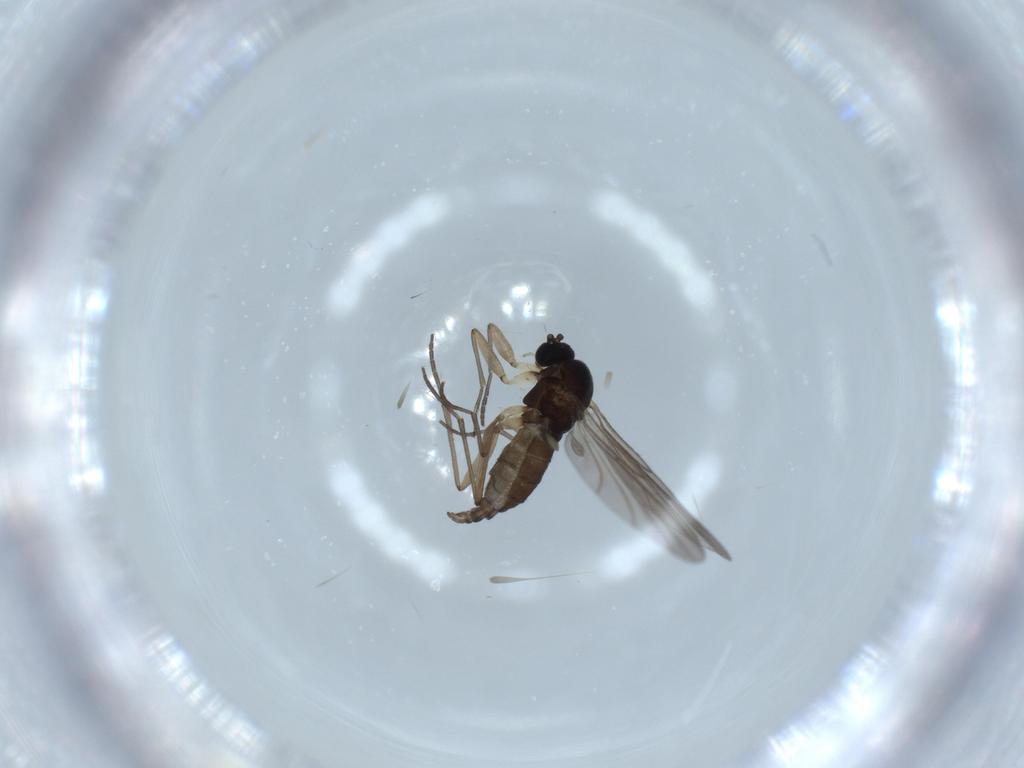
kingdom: Animalia
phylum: Arthropoda
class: Insecta
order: Diptera
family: Sciaridae
